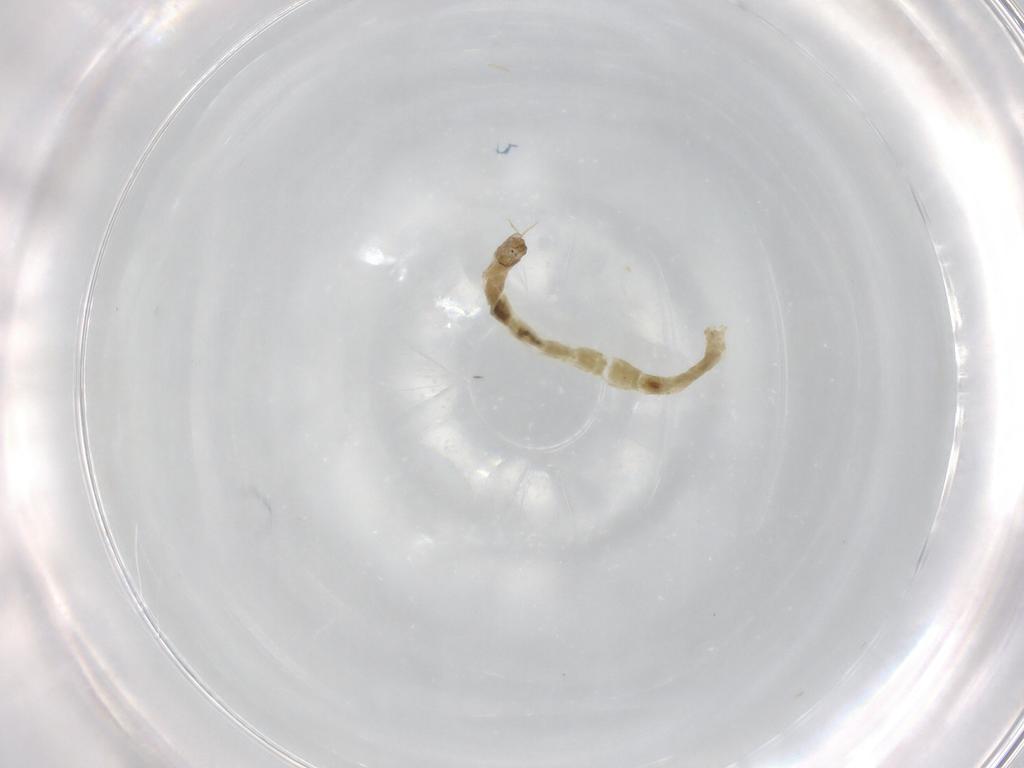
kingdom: Animalia
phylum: Arthropoda
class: Insecta
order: Diptera
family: Chironomidae
